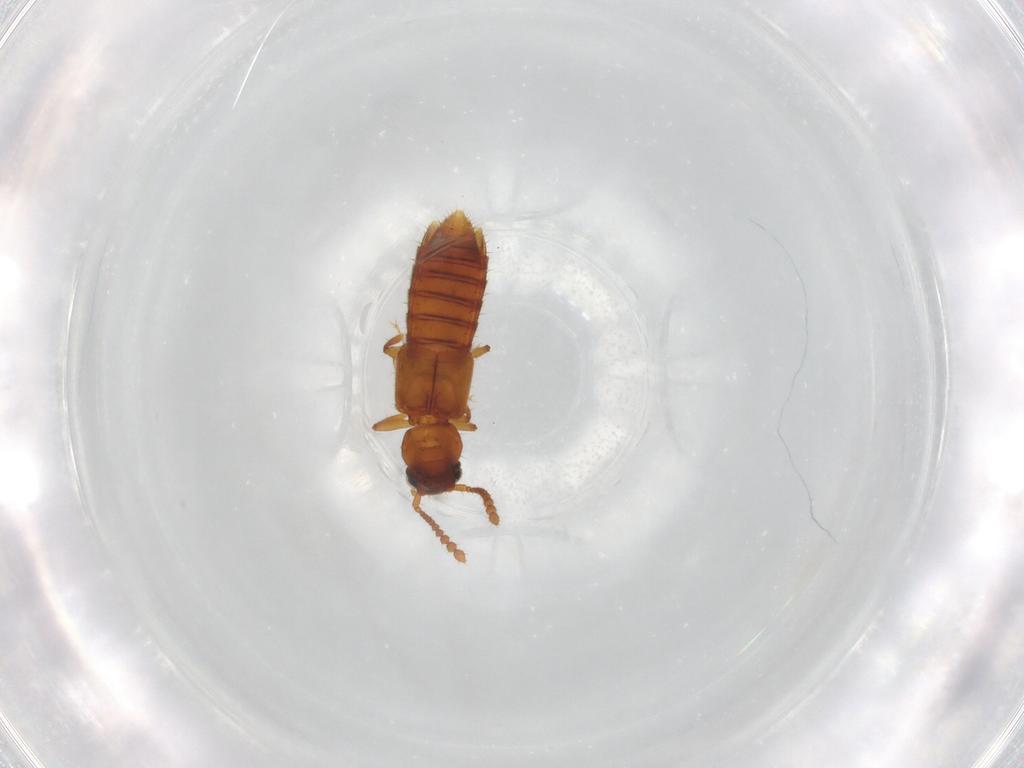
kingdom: Animalia
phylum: Arthropoda
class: Insecta
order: Coleoptera
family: Staphylinidae
